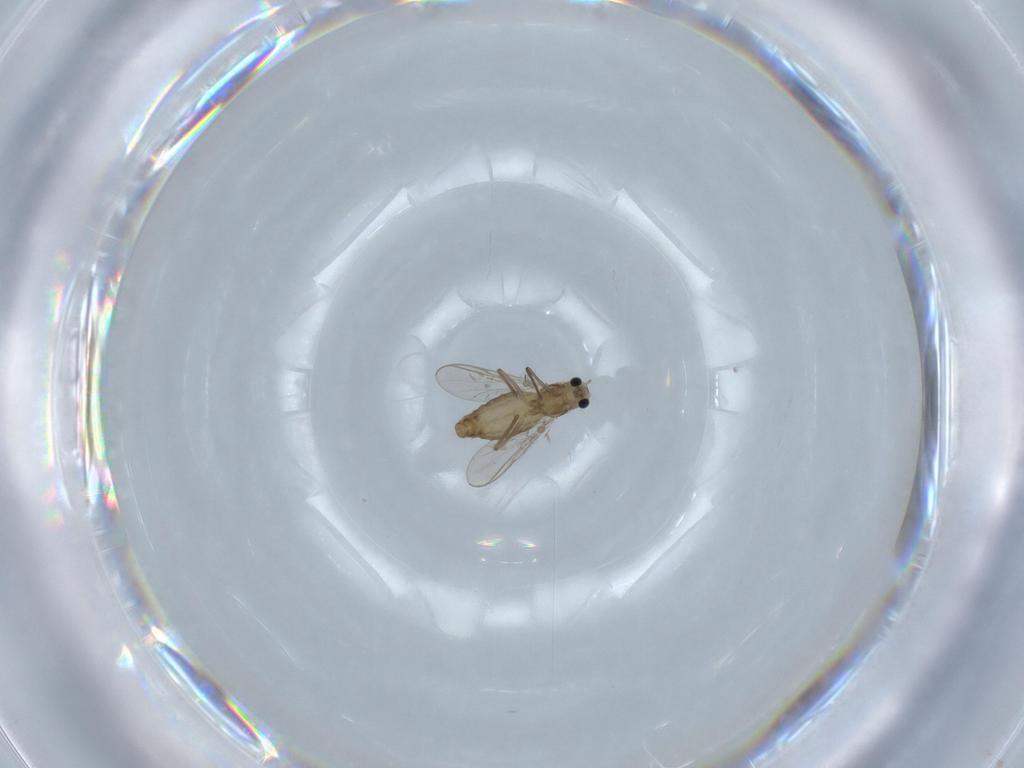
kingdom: Animalia
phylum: Arthropoda
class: Insecta
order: Diptera
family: Chironomidae
